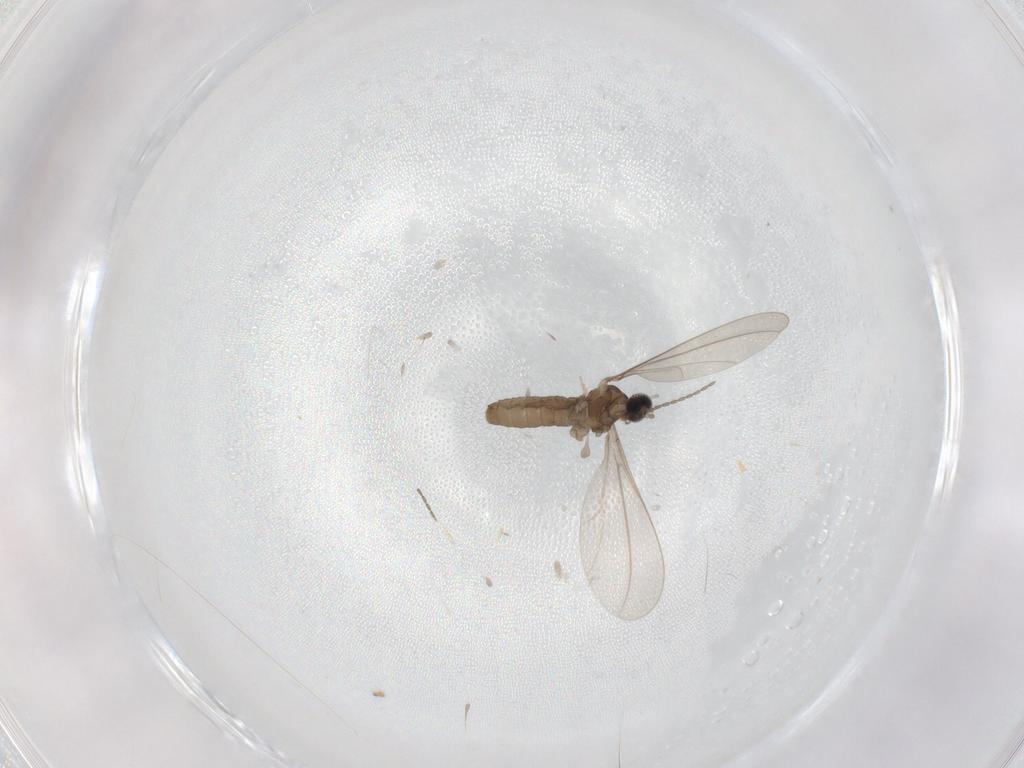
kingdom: Animalia
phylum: Arthropoda
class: Insecta
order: Diptera
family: Cecidomyiidae
